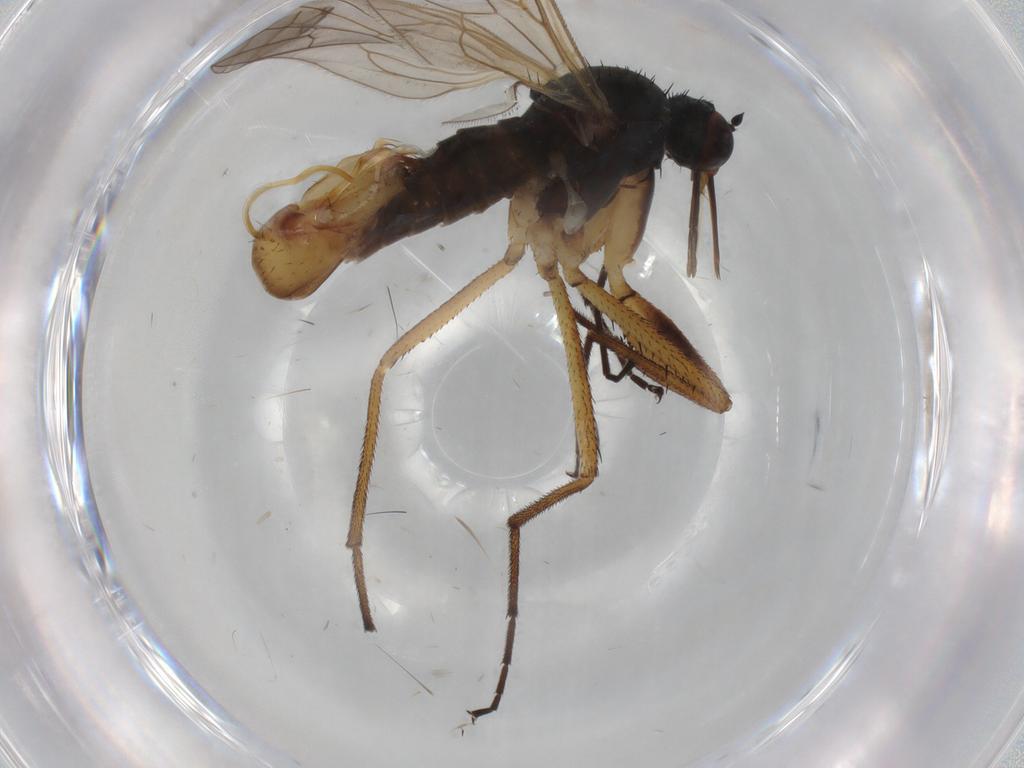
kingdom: Animalia
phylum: Arthropoda
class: Insecta
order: Diptera
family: Empididae
